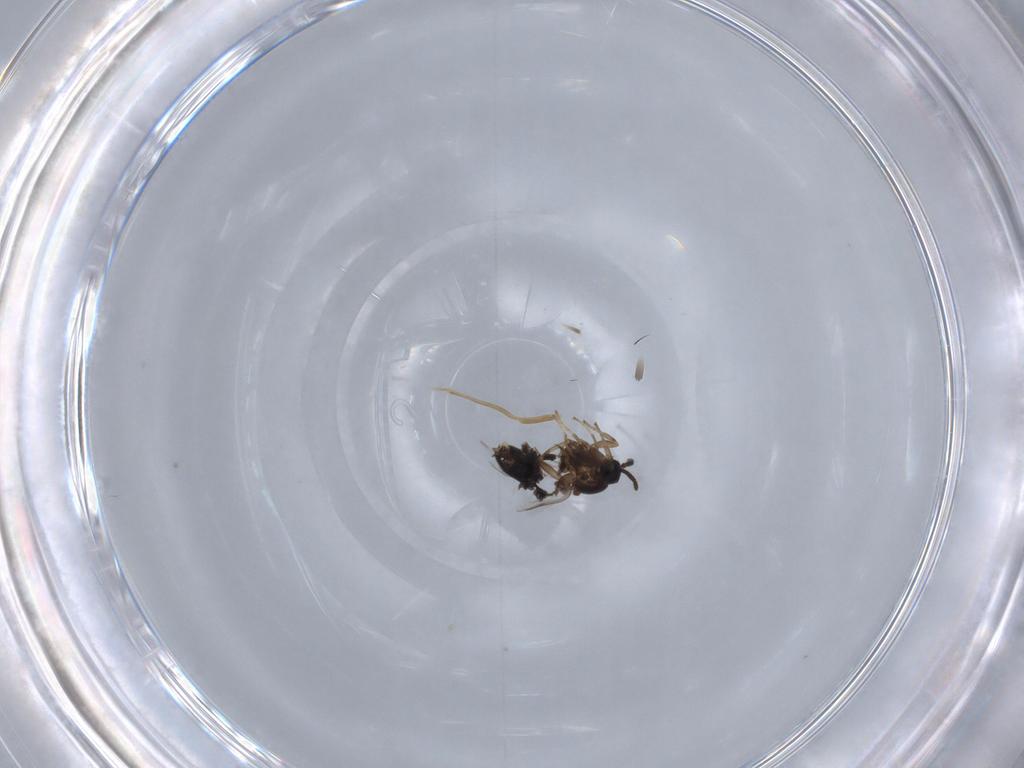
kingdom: Animalia
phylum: Arthropoda
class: Insecta
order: Diptera
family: Scatopsidae
